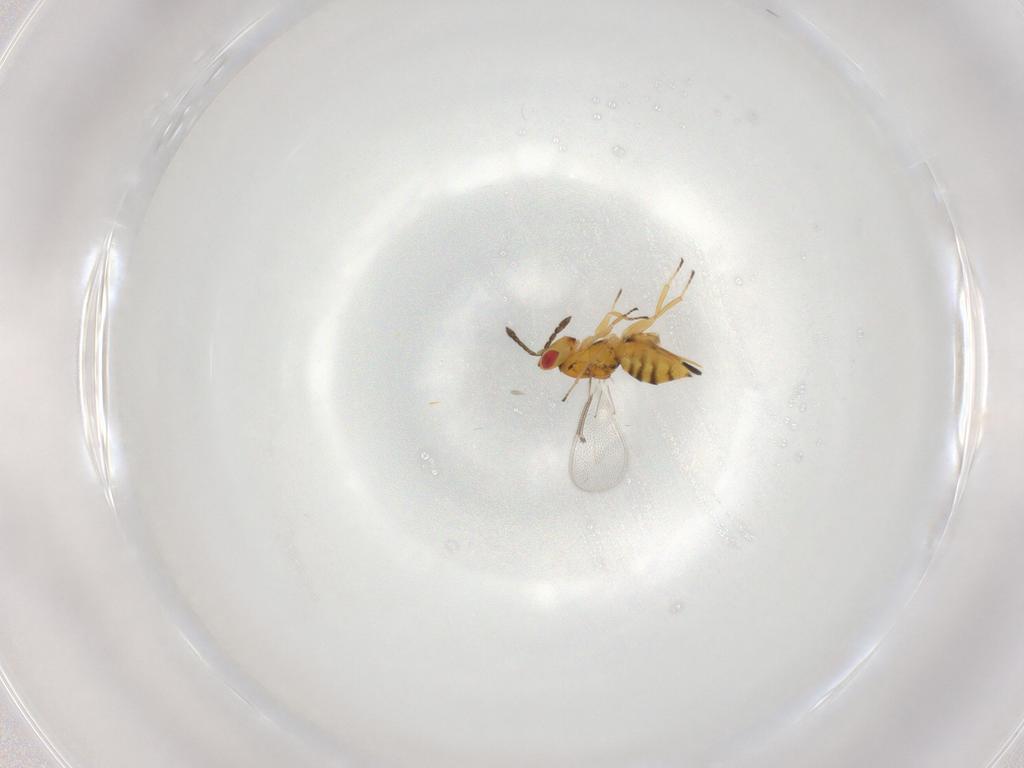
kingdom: Animalia
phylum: Arthropoda
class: Insecta
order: Hymenoptera
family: Eulophidae
